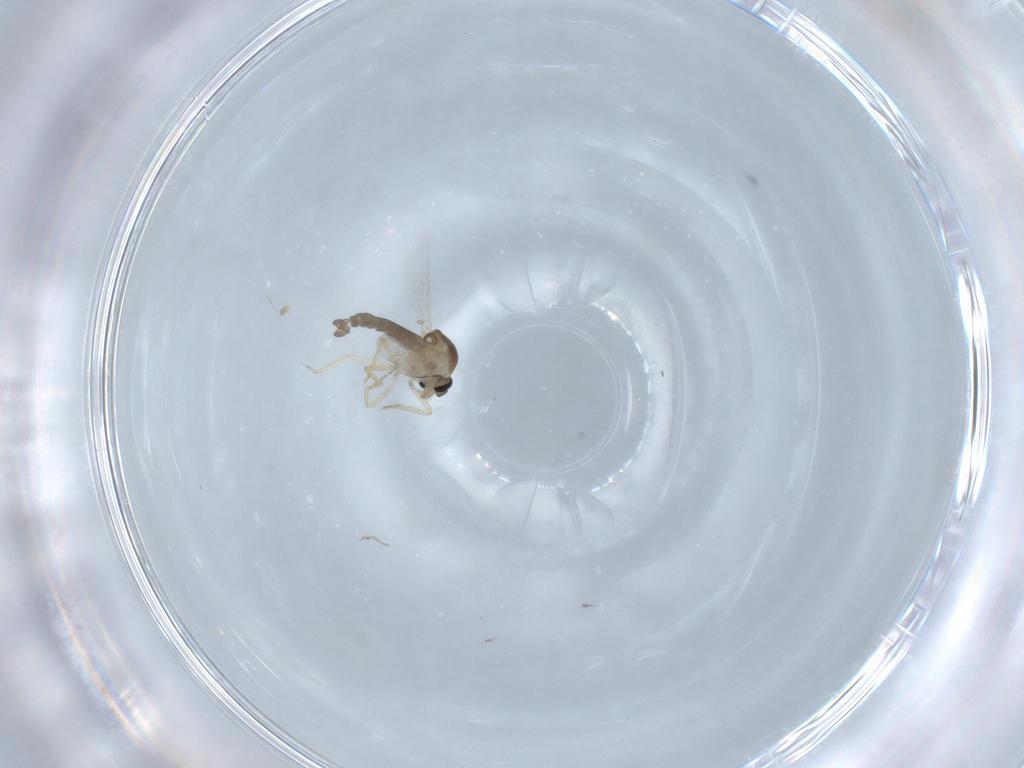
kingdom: Animalia
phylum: Arthropoda
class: Insecta
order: Diptera
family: Ceratopogonidae
